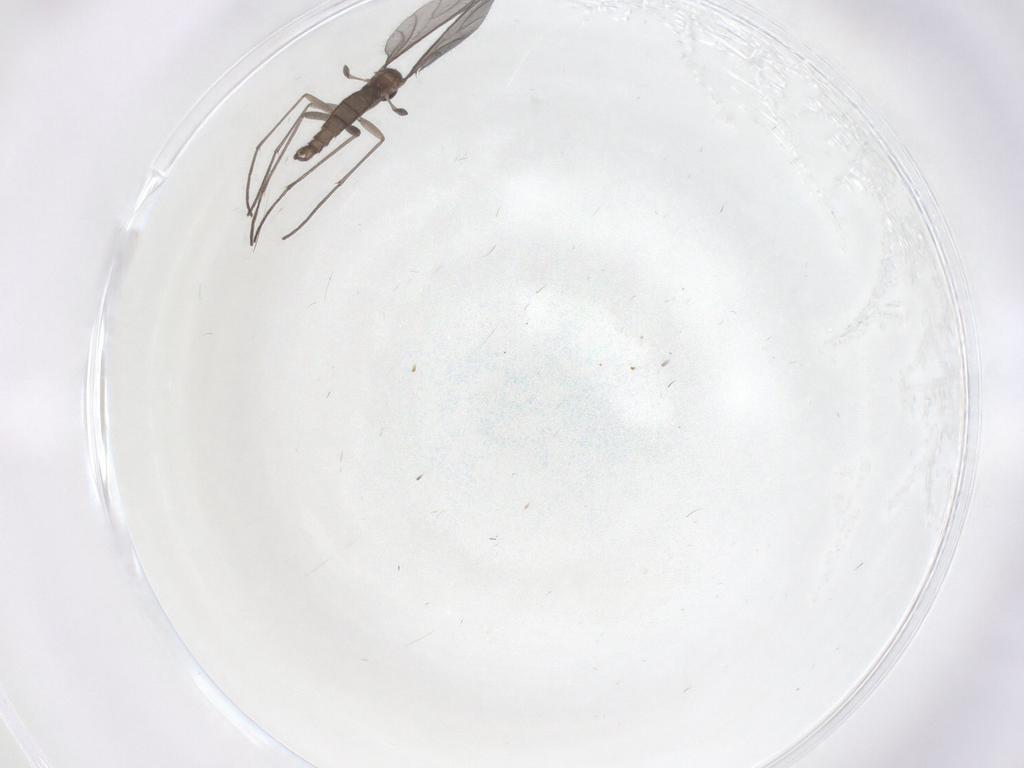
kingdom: Animalia
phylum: Arthropoda
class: Insecta
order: Diptera
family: Sciaridae
